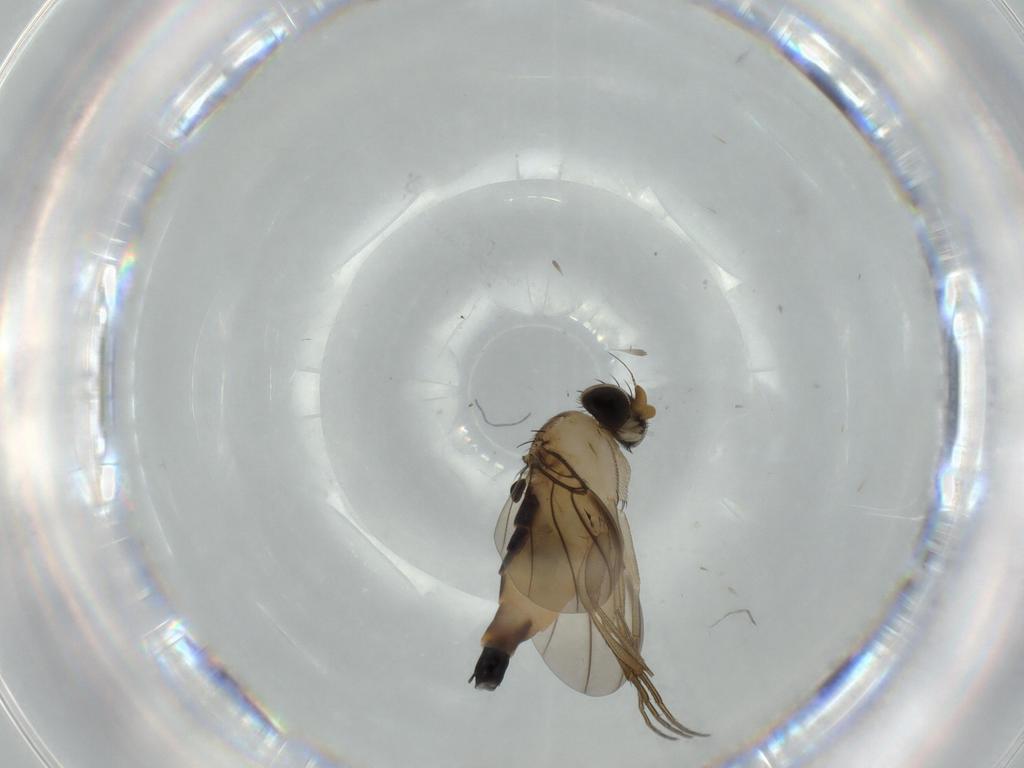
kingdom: Animalia
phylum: Arthropoda
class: Insecta
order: Diptera
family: Phoridae
